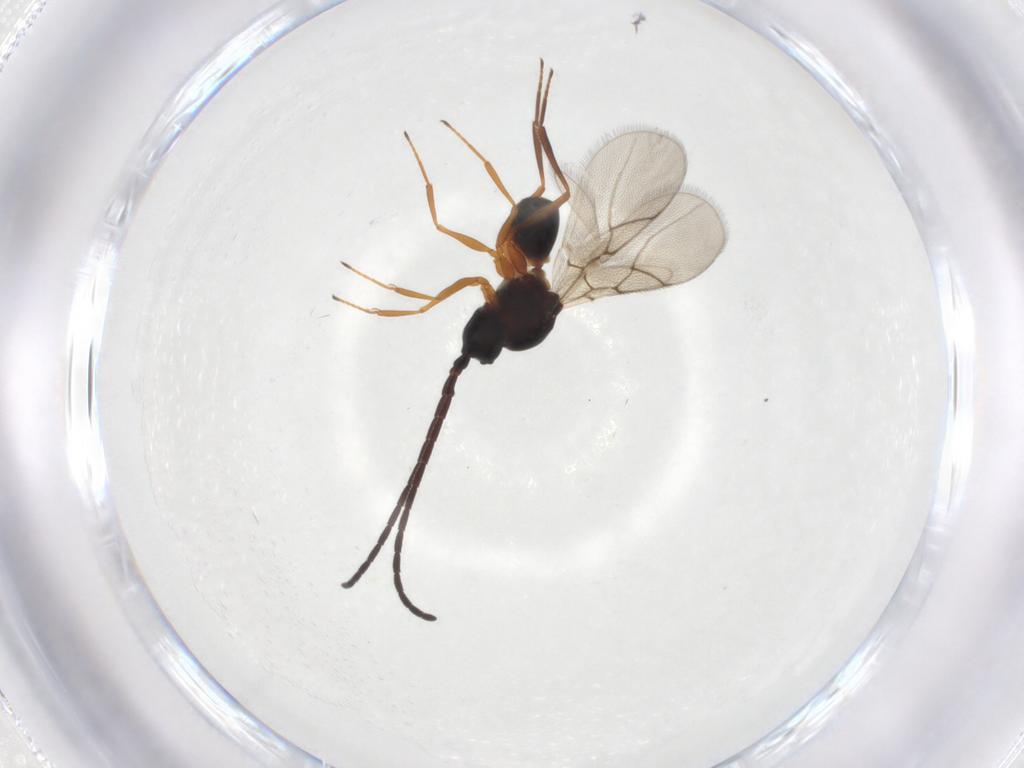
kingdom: Animalia
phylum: Arthropoda
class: Insecta
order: Hymenoptera
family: Figitidae
